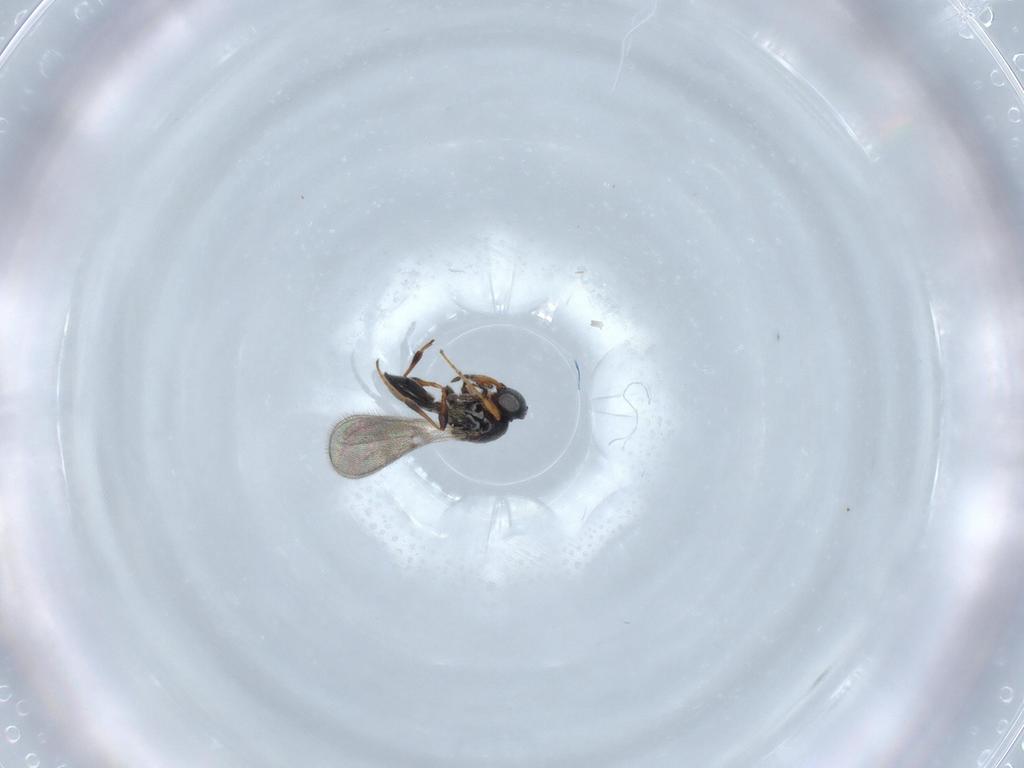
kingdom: Animalia
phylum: Arthropoda
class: Insecta
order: Hymenoptera
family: Platygastridae
